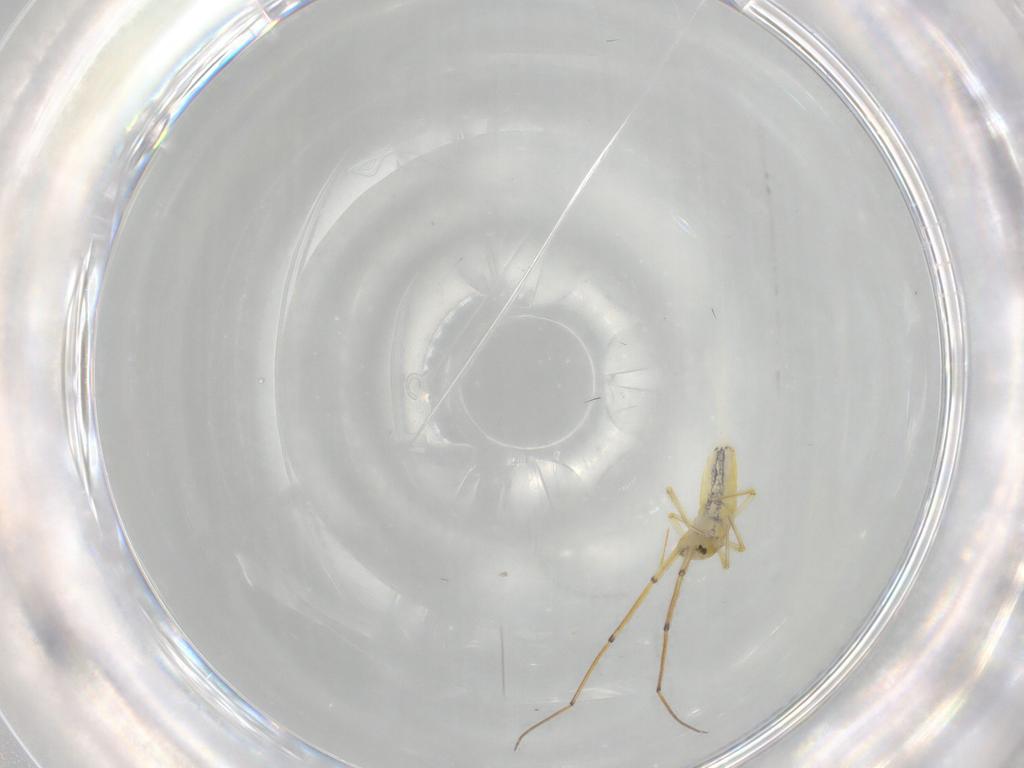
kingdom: Animalia
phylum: Arthropoda
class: Collembola
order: Entomobryomorpha
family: Paronellidae
